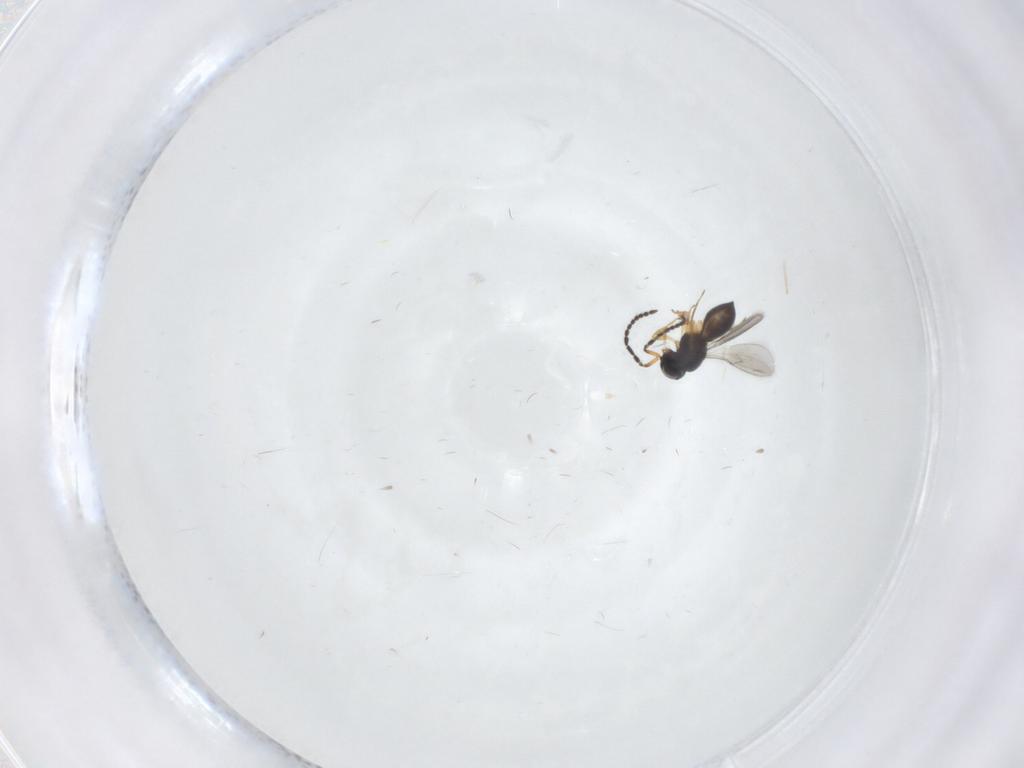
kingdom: Animalia
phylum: Arthropoda
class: Insecta
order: Hymenoptera
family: Scelionidae
